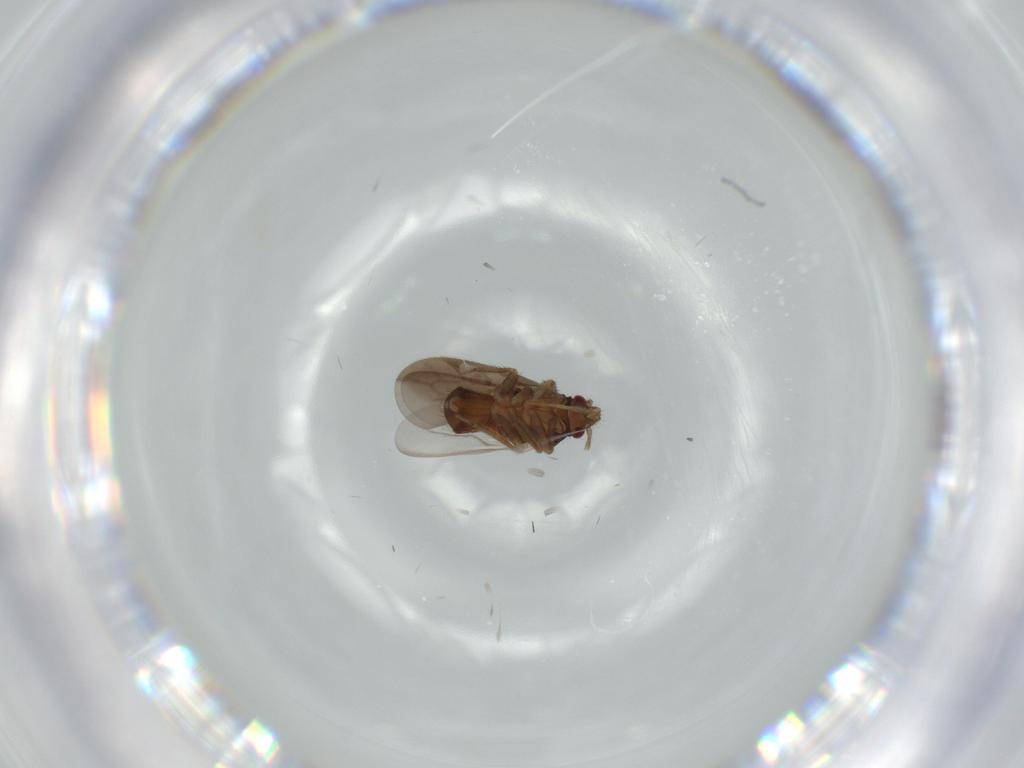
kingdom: Animalia
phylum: Arthropoda
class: Insecta
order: Hemiptera
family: Ceratocombidae
